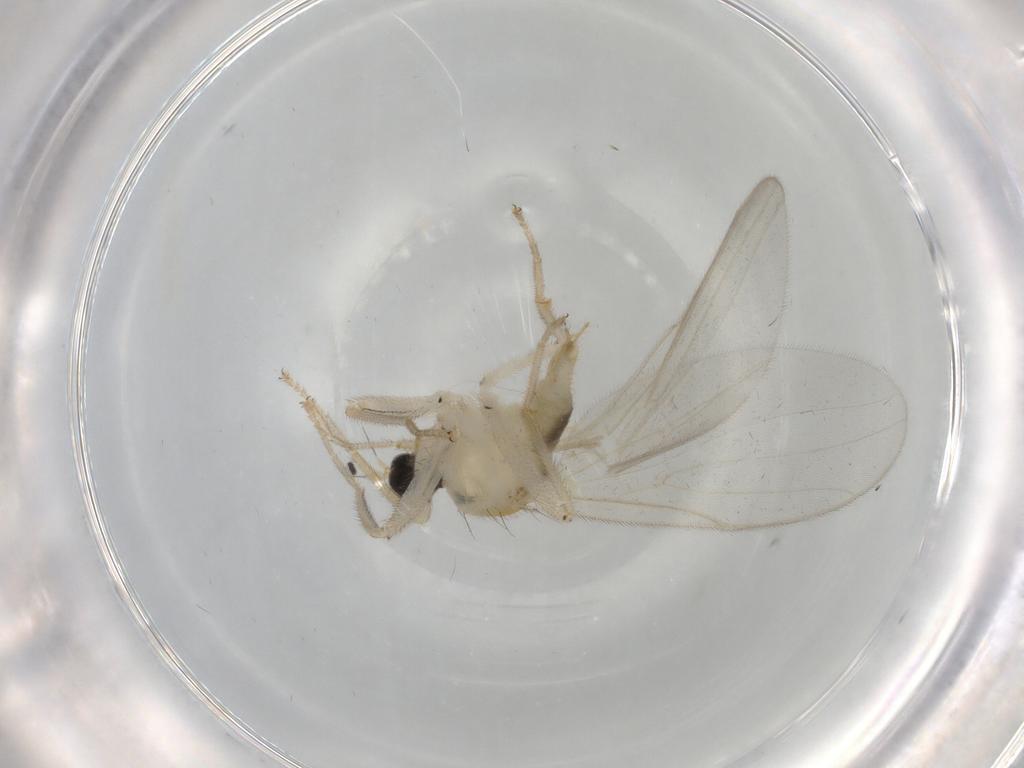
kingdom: Animalia
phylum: Arthropoda
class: Insecta
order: Diptera
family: Hybotidae
